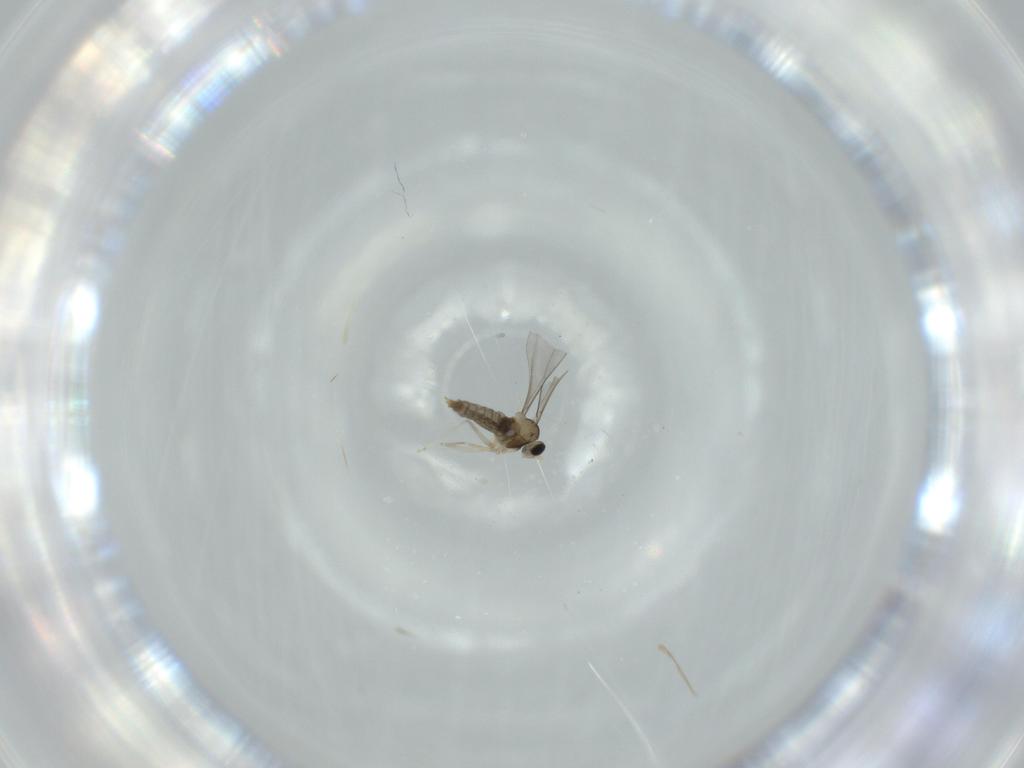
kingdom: Animalia
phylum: Arthropoda
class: Insecta
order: Diptera
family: Cecidomyiidae
